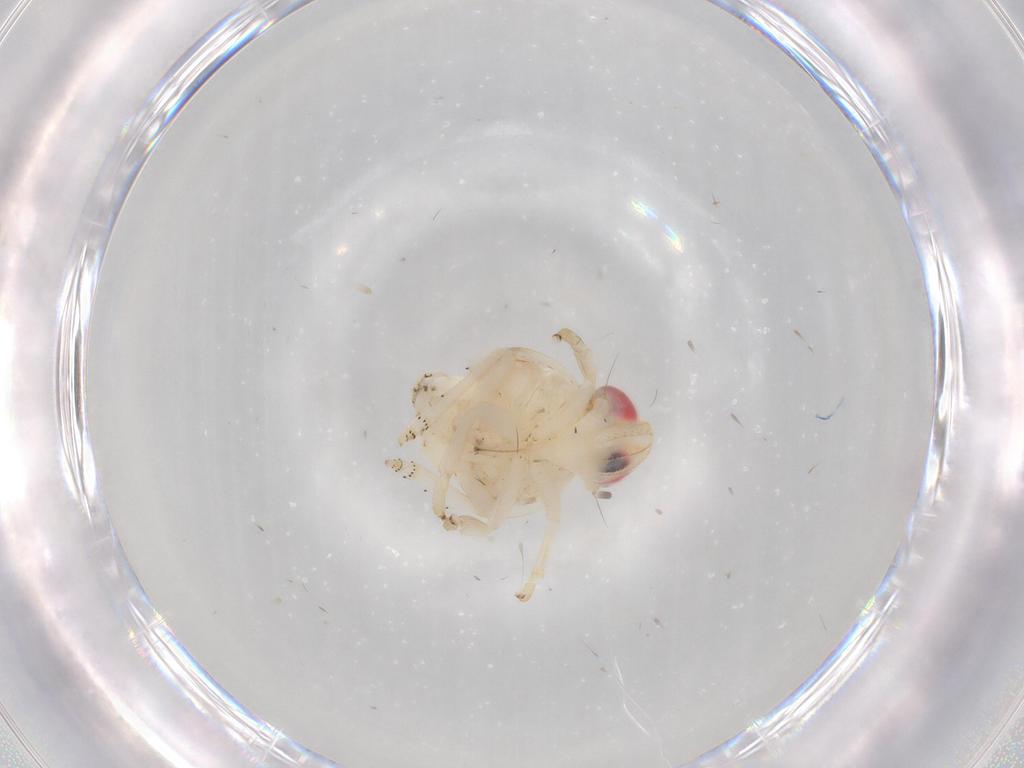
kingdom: Animalia
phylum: Arthropoda
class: Insecta
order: Hemiptera
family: Nogodinidae
